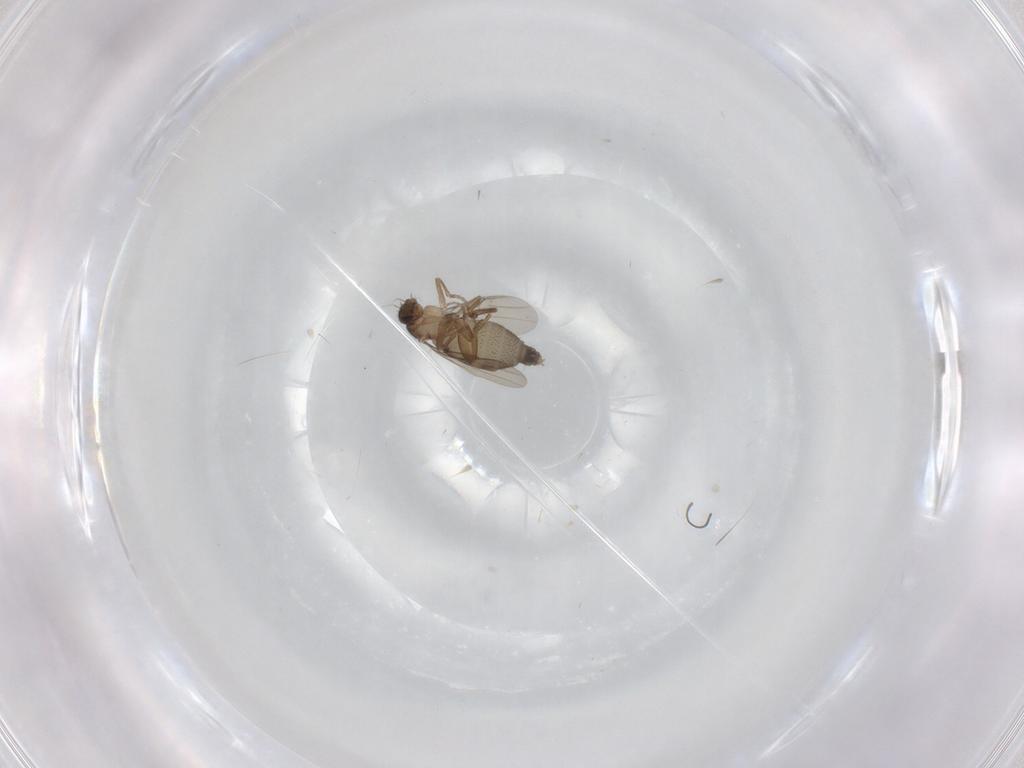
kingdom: Animalia
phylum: Arthropoda
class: Insecta
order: Diptera
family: Phoridae
